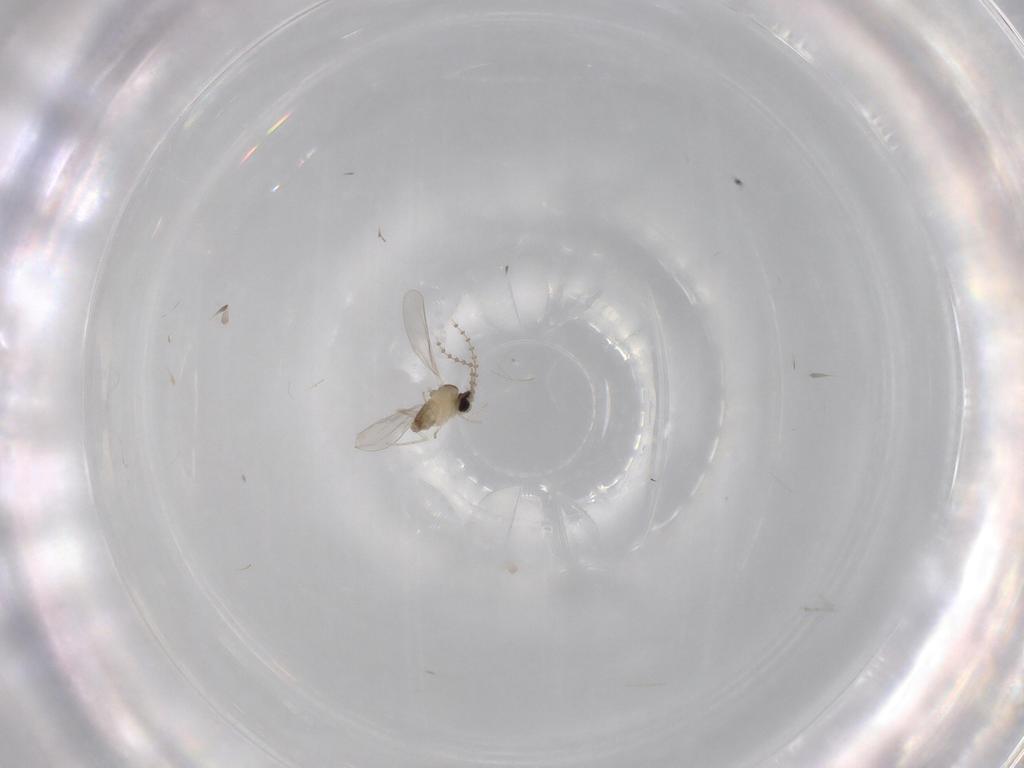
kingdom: Animalia
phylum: Arthropoda
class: Insecta
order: Diptera
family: Cecidomyiidae
